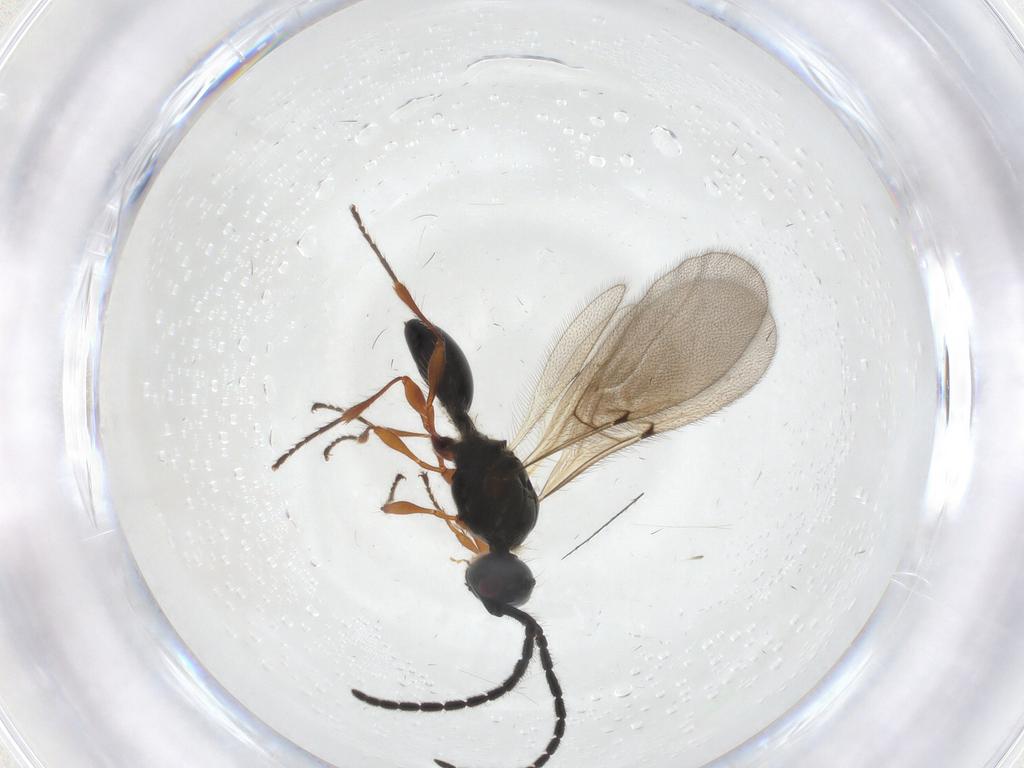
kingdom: Animalia
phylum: Arthropoda
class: Insecta
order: Hymenoptera
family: Diapriidae
